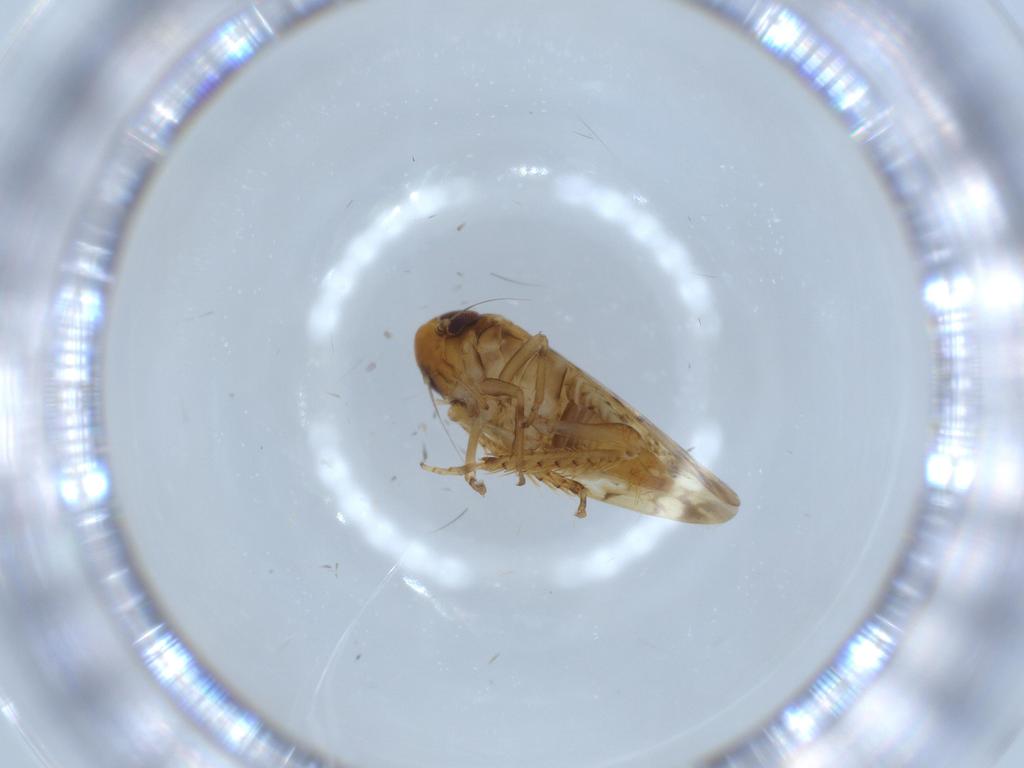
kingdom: Animalia
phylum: Arthropoda
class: Insecta
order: Hemiptera
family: Cicadellidae
